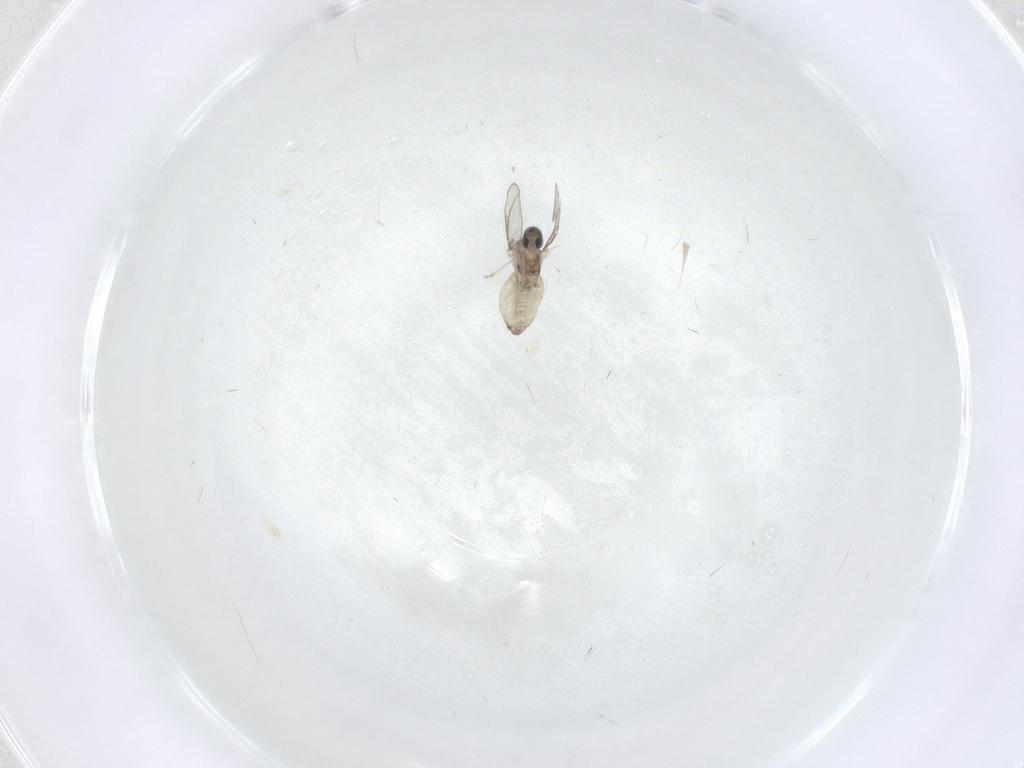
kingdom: Animalia
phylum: Arthropoda
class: Insecta
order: Diptera
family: Cecidomyiidae
